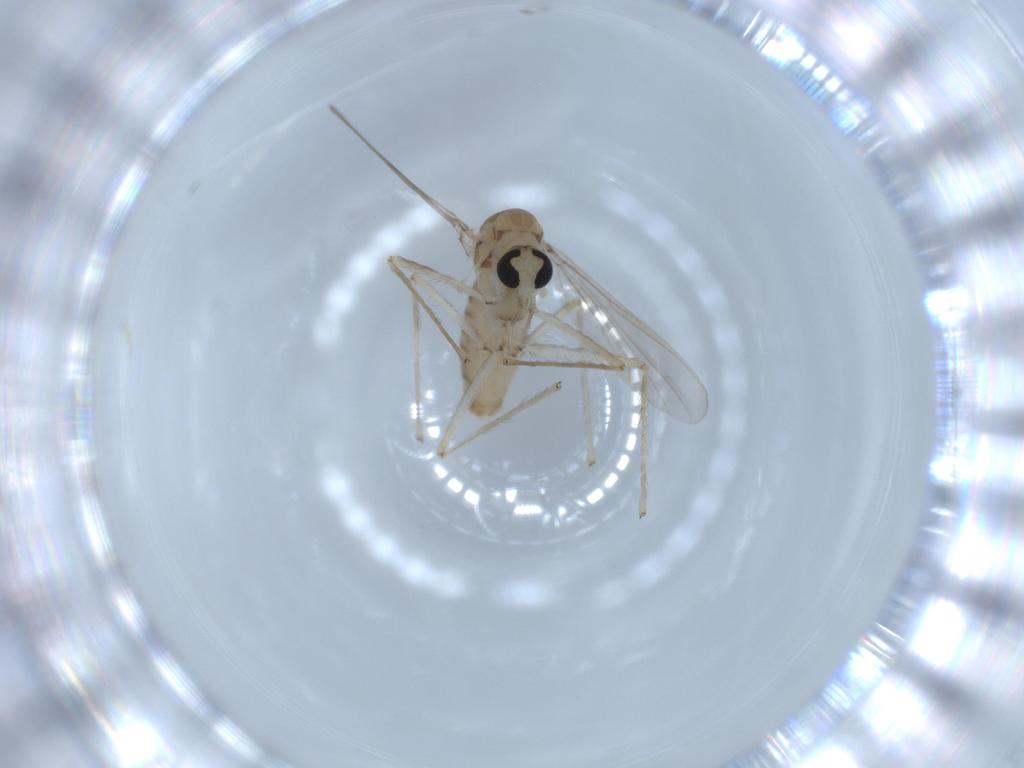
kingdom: Animalia
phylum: Arthropoda
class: Insecta
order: Diptera
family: Chironomidae
